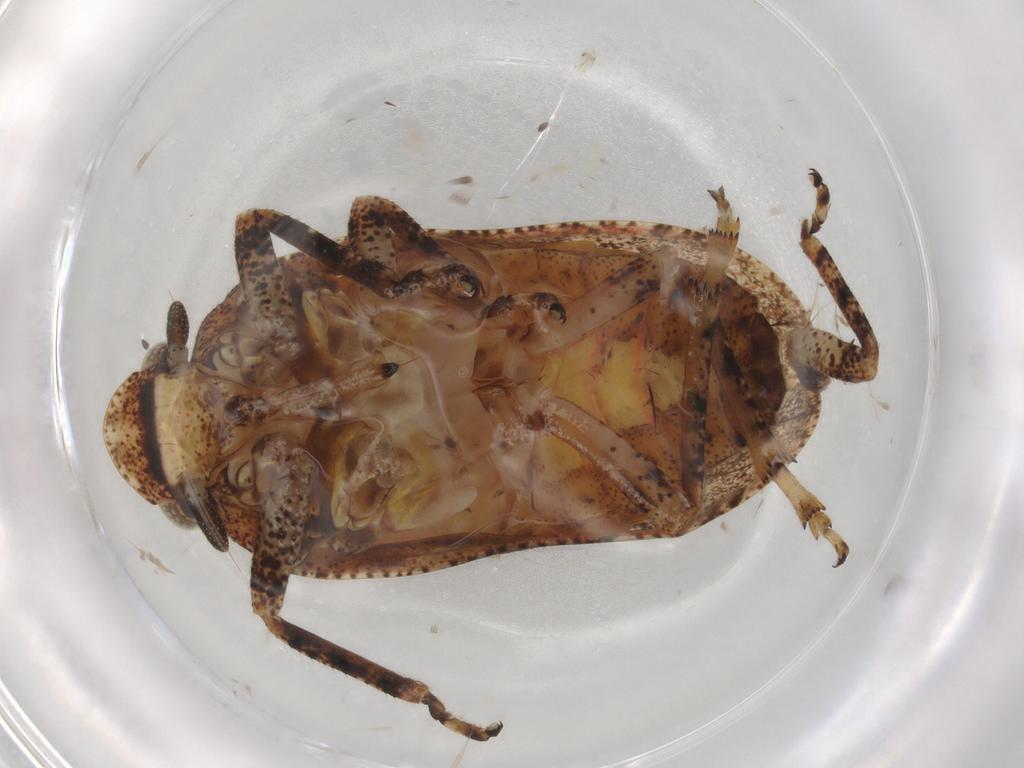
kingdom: Animalia
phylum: Arthropoda
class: Insecta
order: Hemiptera
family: Tettigometridae
